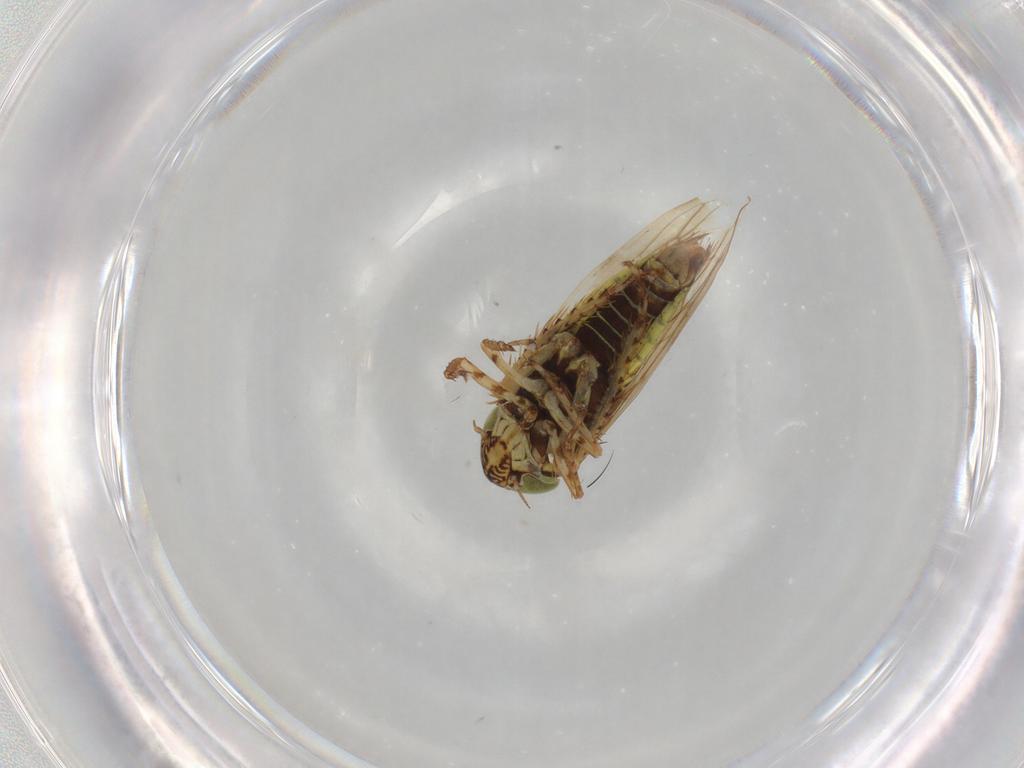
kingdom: Animalia
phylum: Arthropoda
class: Insecta
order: Hemiptera
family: Cicadellidae
